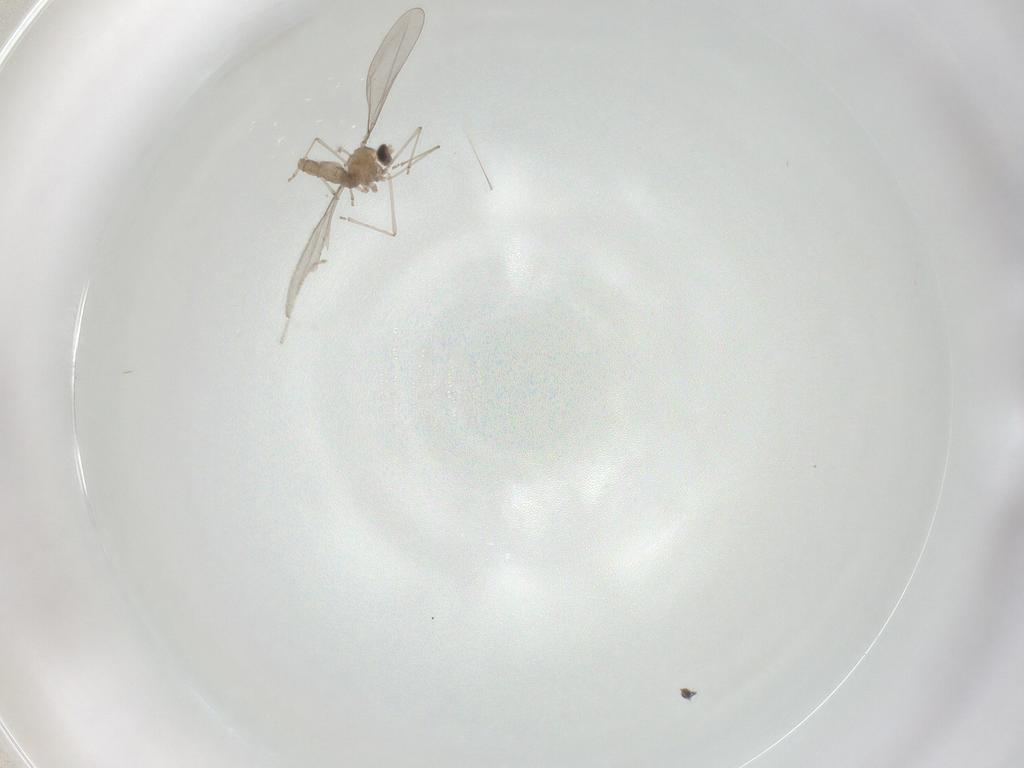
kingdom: Animalia
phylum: Arthropoda
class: Insecta
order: Diptera
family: Cecidomyiidae
